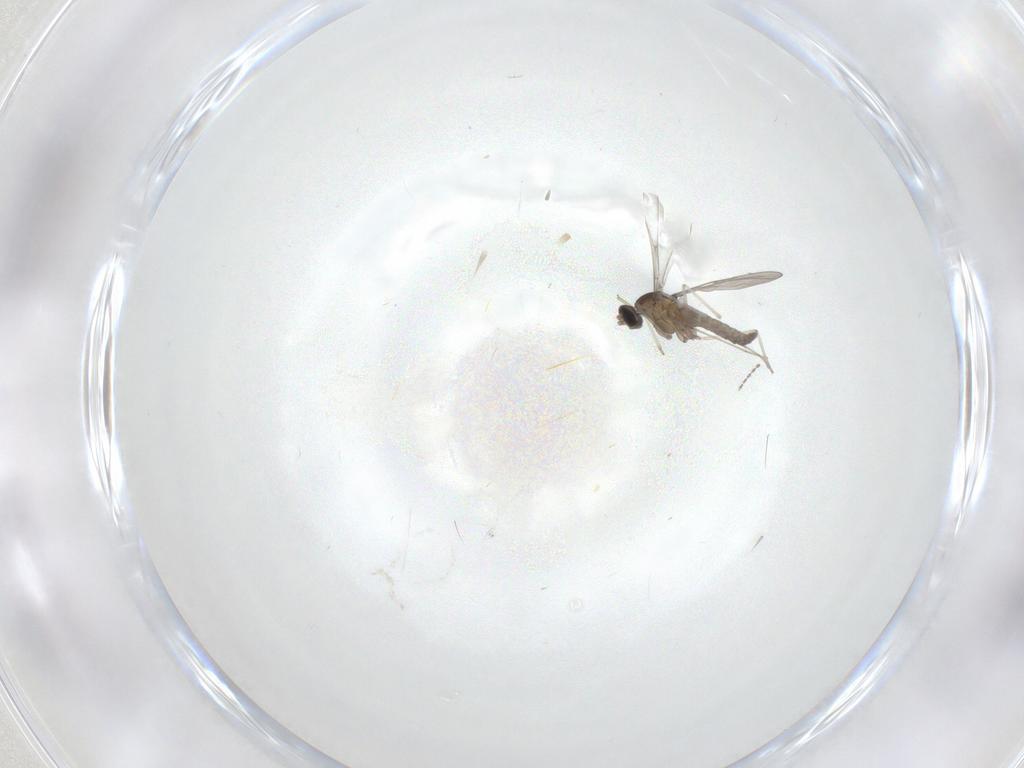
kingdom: Animalia
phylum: Arthropoda
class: Insecta
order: Diptera
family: Cecidomyiidae
